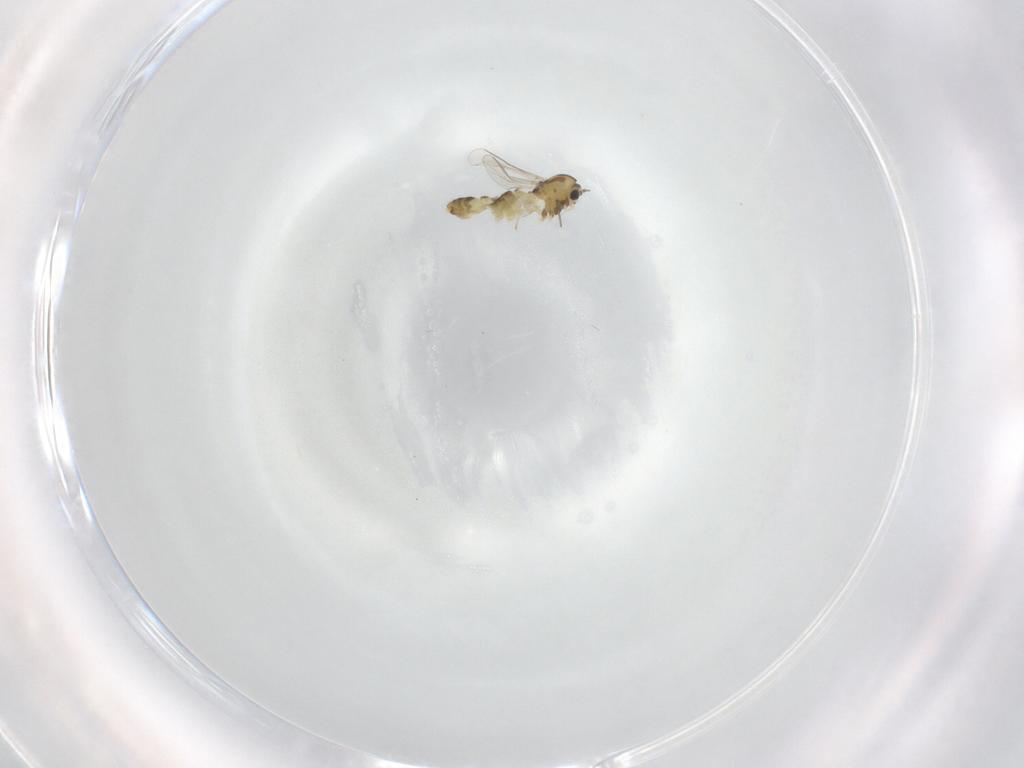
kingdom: Animalia
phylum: Arthropoda
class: Insecta
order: Diptera
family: Chironomidae
